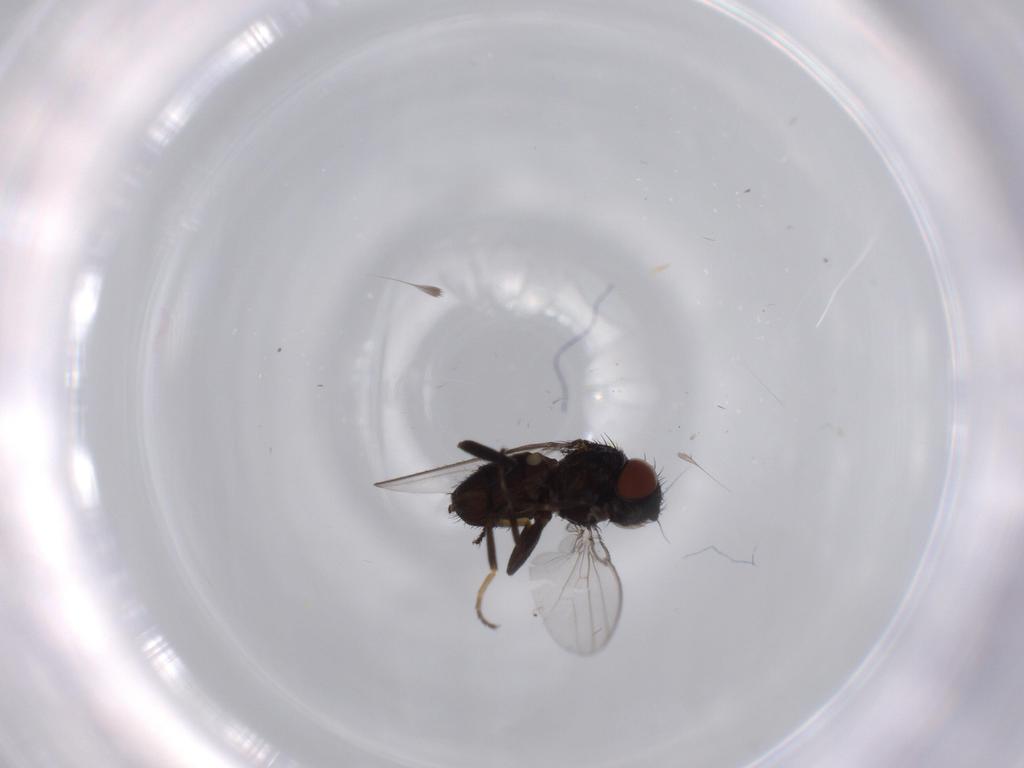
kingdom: Animalia
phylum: Arthropoda
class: Insecta
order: Diptera
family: Milichiidae
